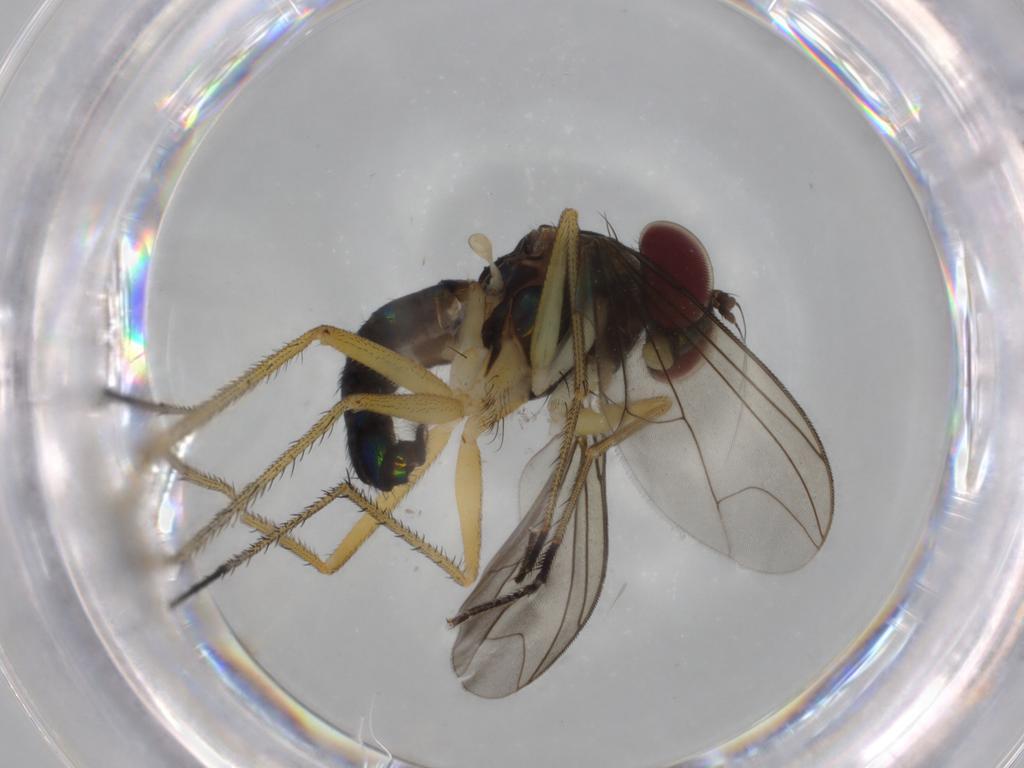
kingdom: Animalia
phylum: Arthropoda
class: Insecta
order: Diptera
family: Dolichopodidae
